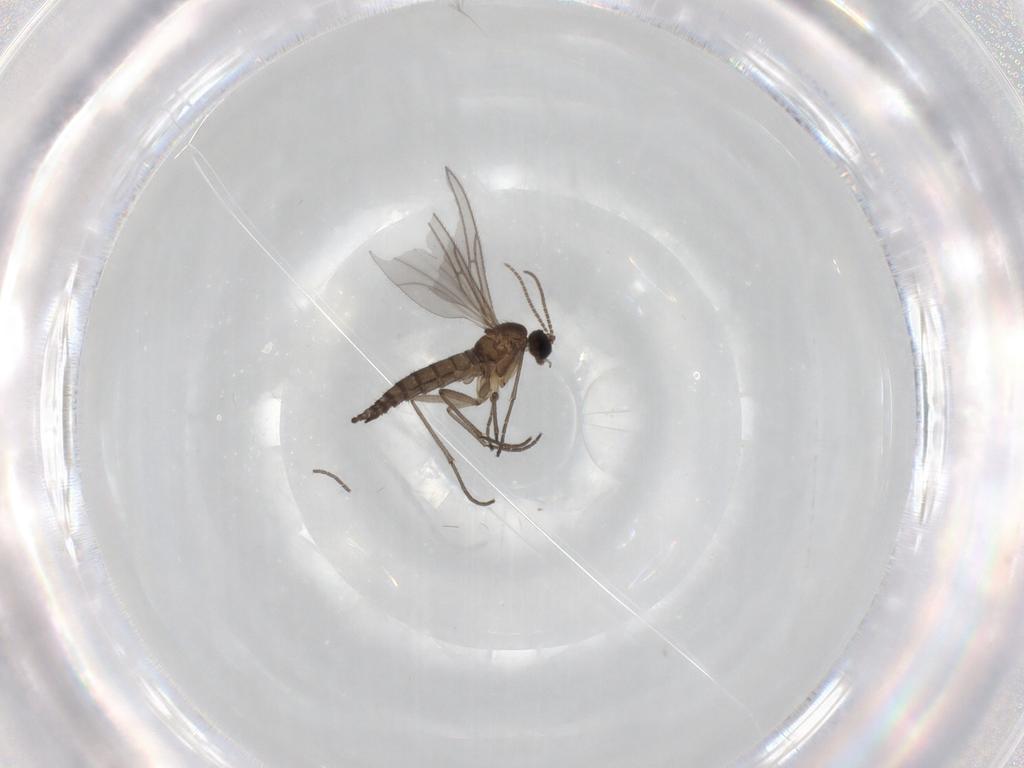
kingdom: Animalia
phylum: Arthropoda
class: Insecta
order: Diptera
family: Sciaridae
